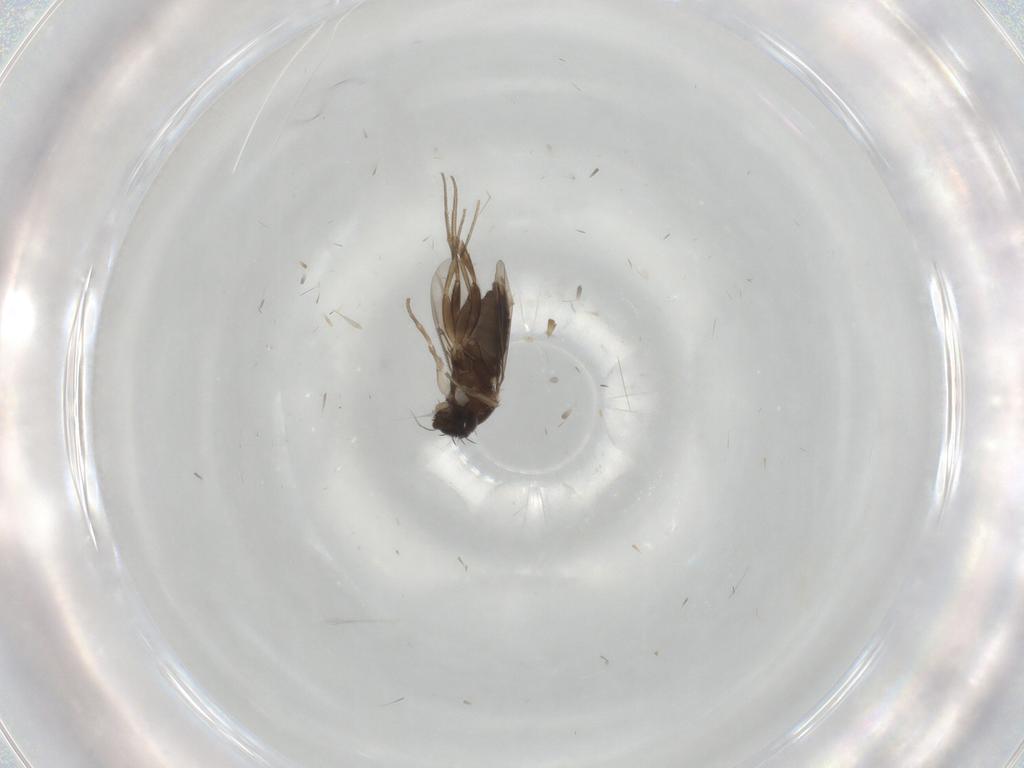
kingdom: Animalia
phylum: Arthropoda
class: Insecta
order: Diptera
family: Phoridae
